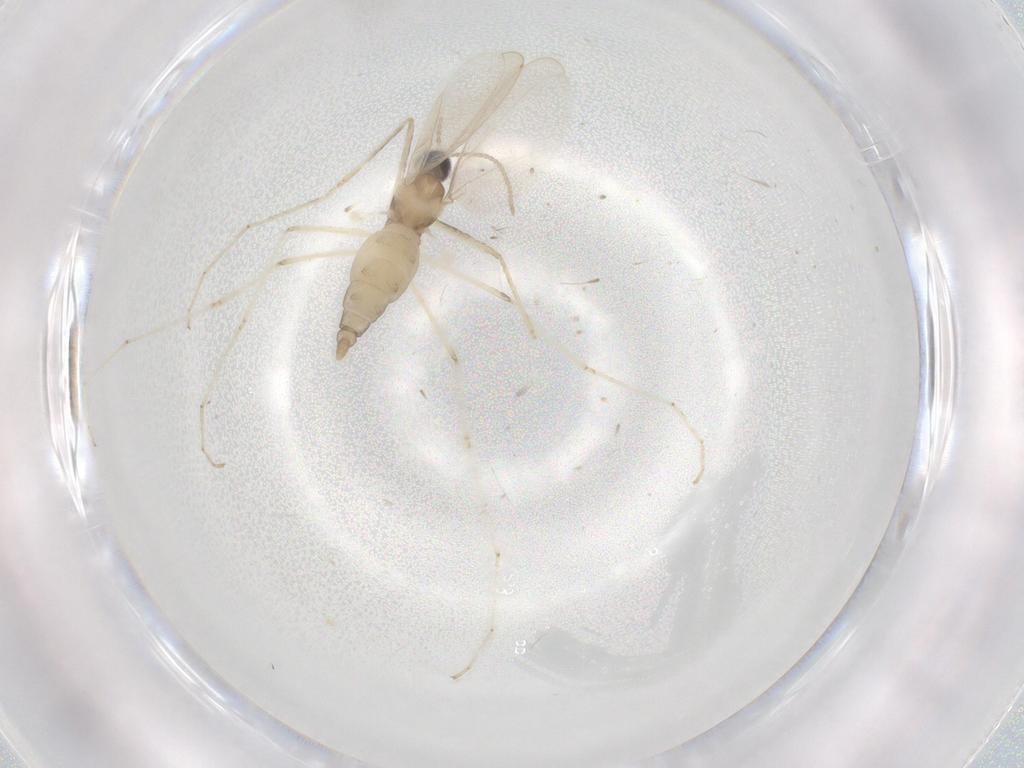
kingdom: Animalia
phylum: Arthropoda
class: Insecta
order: Diptera
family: Cecidomyiidae
